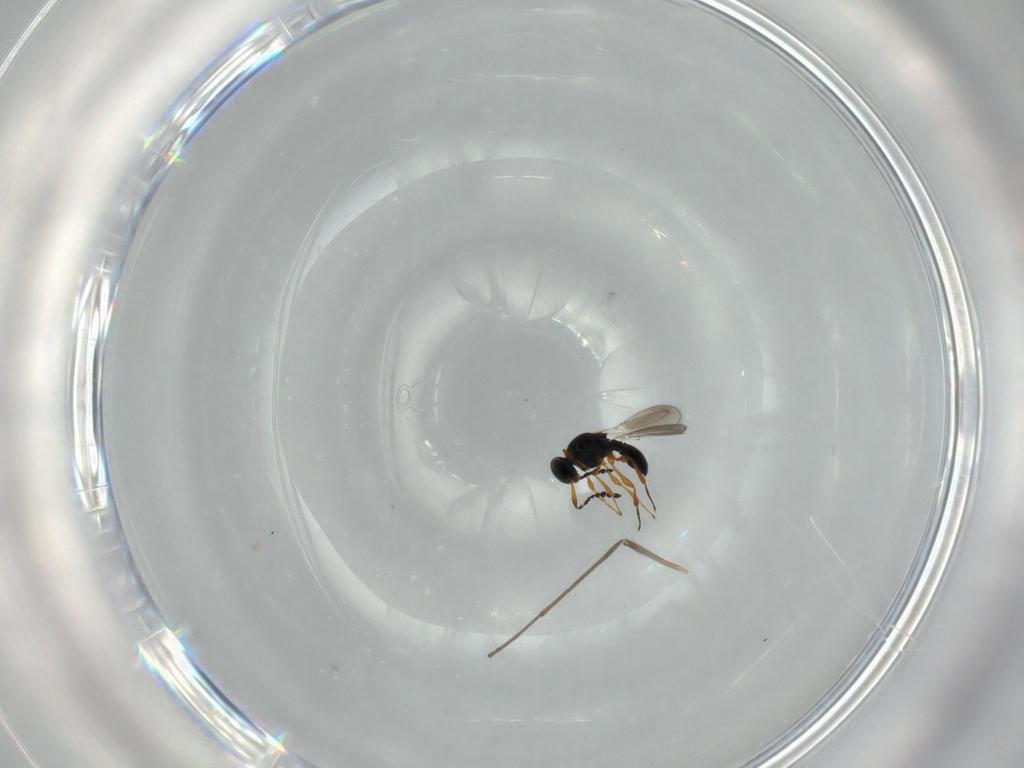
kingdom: Animalia
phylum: Arthropoda
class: Insecta
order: Hymenoptera
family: Platygastridae
